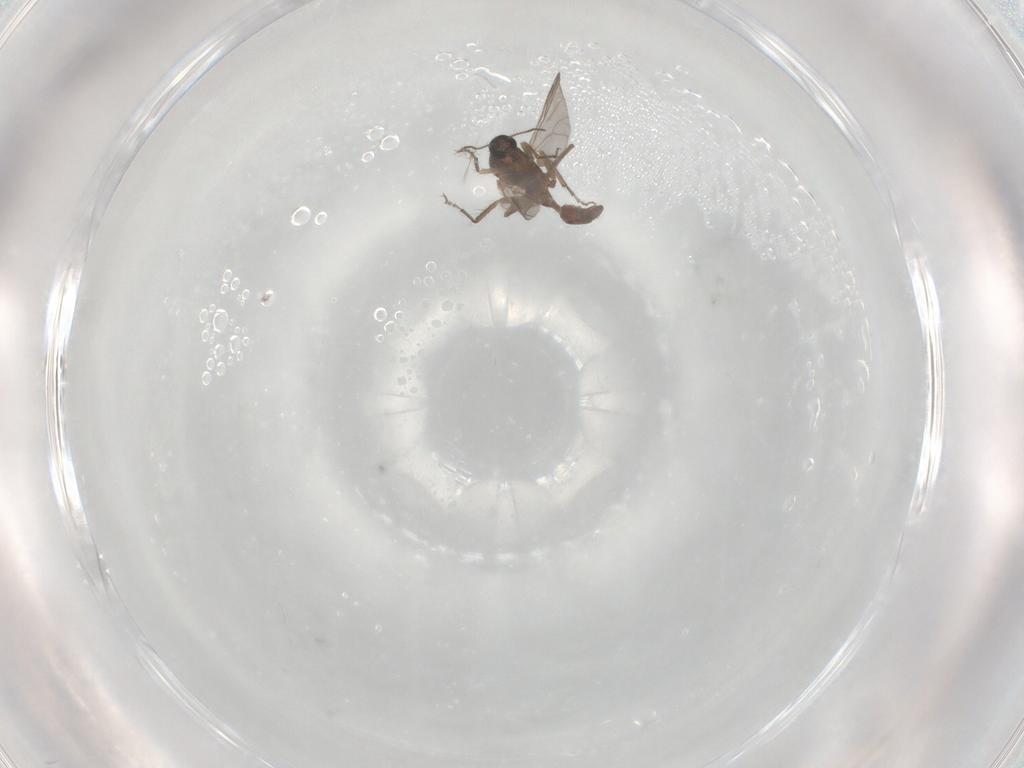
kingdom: Animalia
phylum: Arthropoda
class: Insecta
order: Diptera
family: Ceratopogonidae
